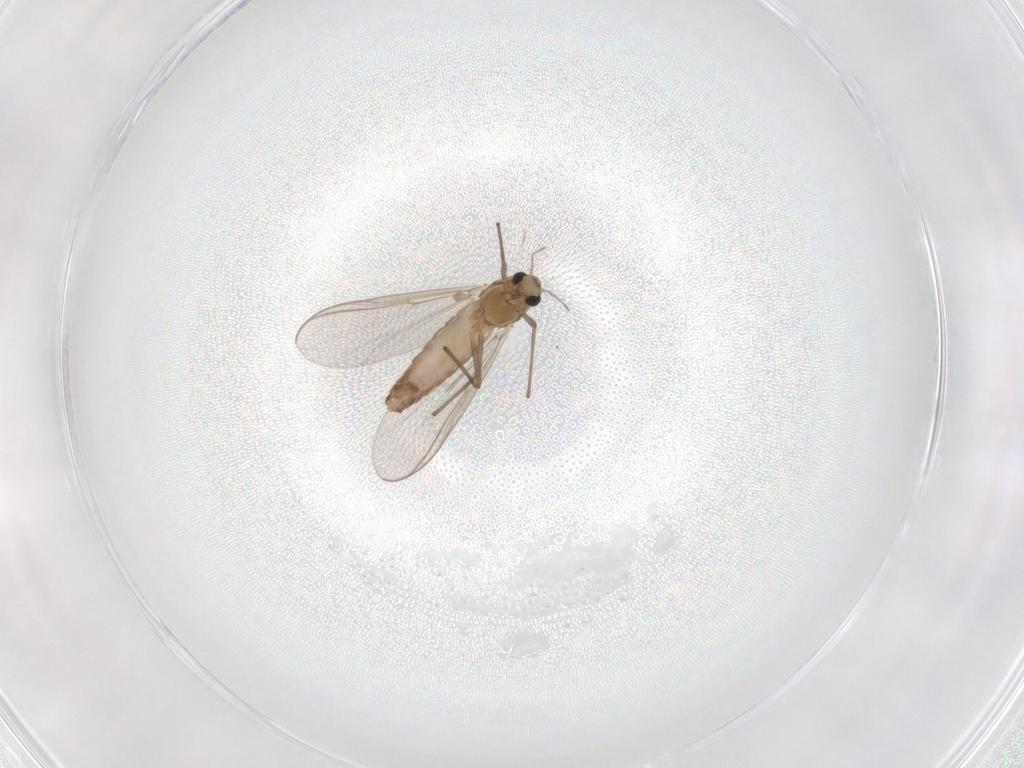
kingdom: Animalia
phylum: Arthropoda
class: Insecta
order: Diptera
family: Chironomidae
